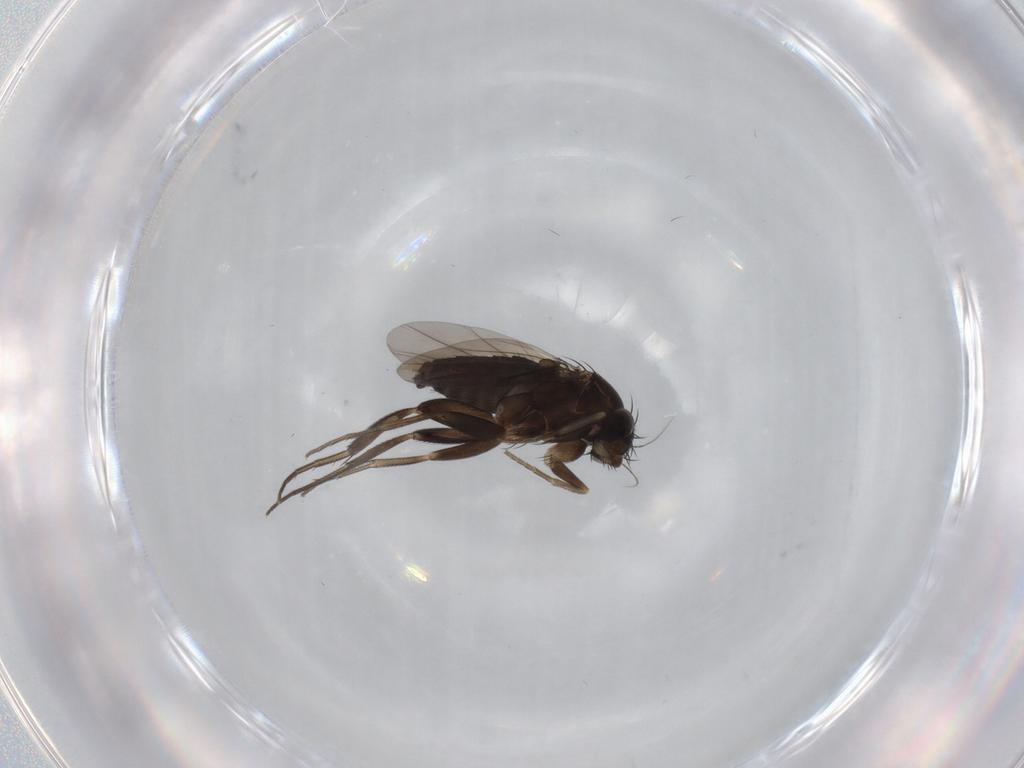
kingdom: Animalia
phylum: Arthropoda
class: Insecta
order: Diptera
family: Phoridae
